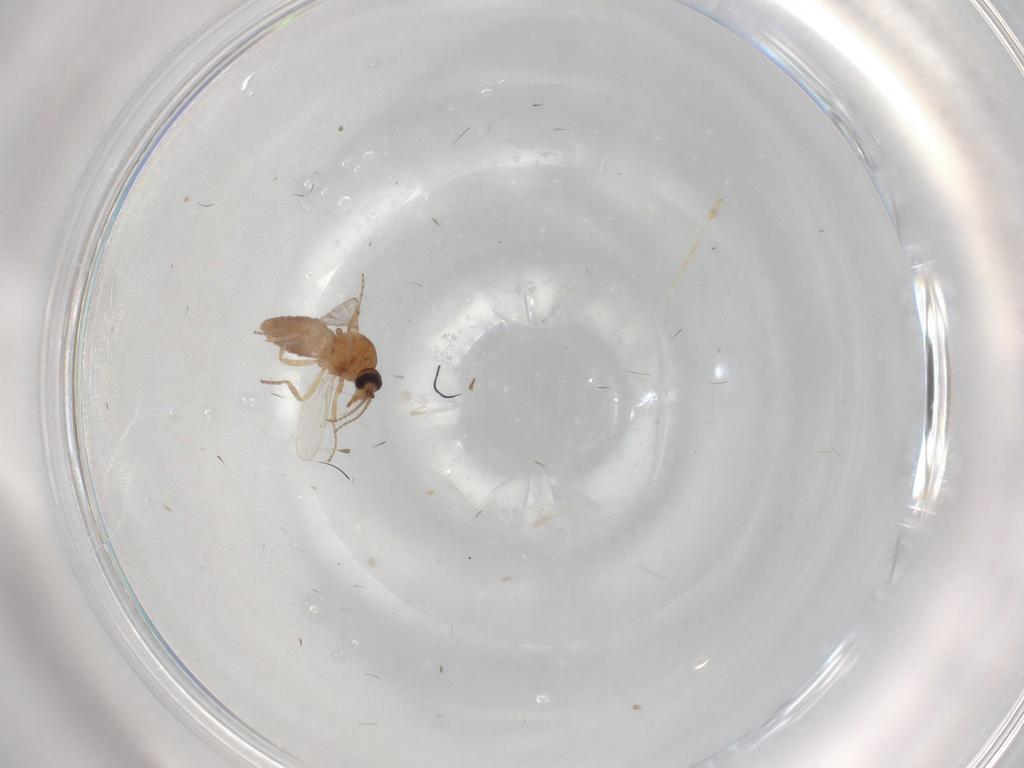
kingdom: Animalia
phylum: Arthropoda
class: Insecta
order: Diptera
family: Ceratopogonidae
